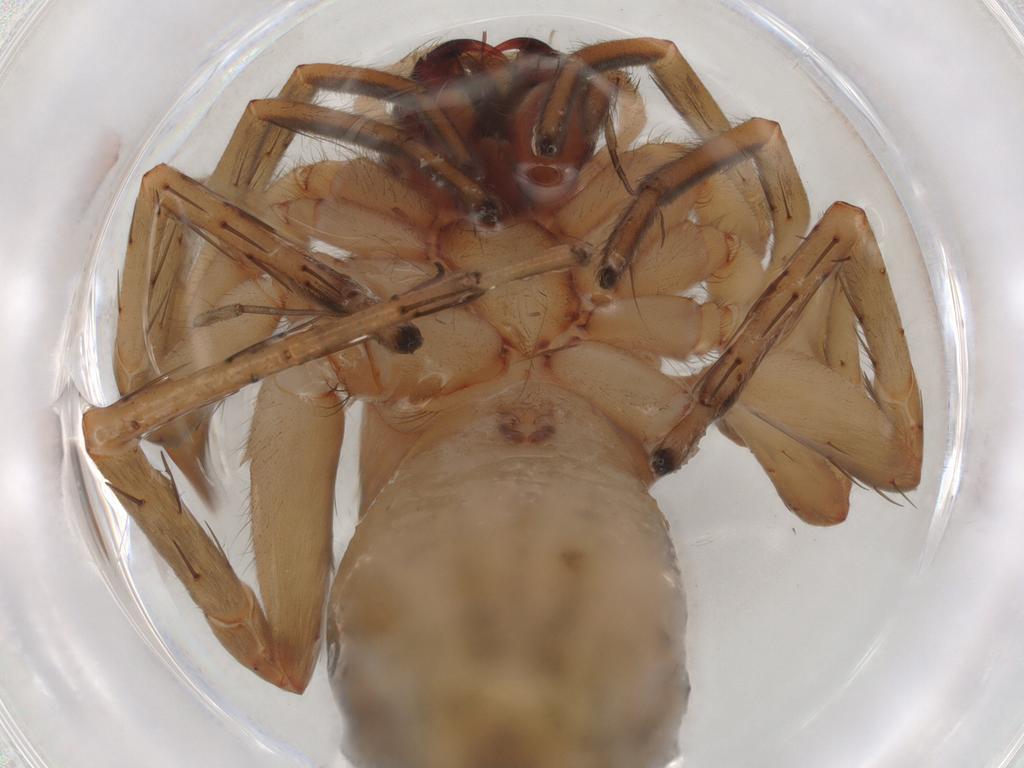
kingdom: Animalia
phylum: Arthropoda
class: Arachnida
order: Araneae
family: Clubionidae
